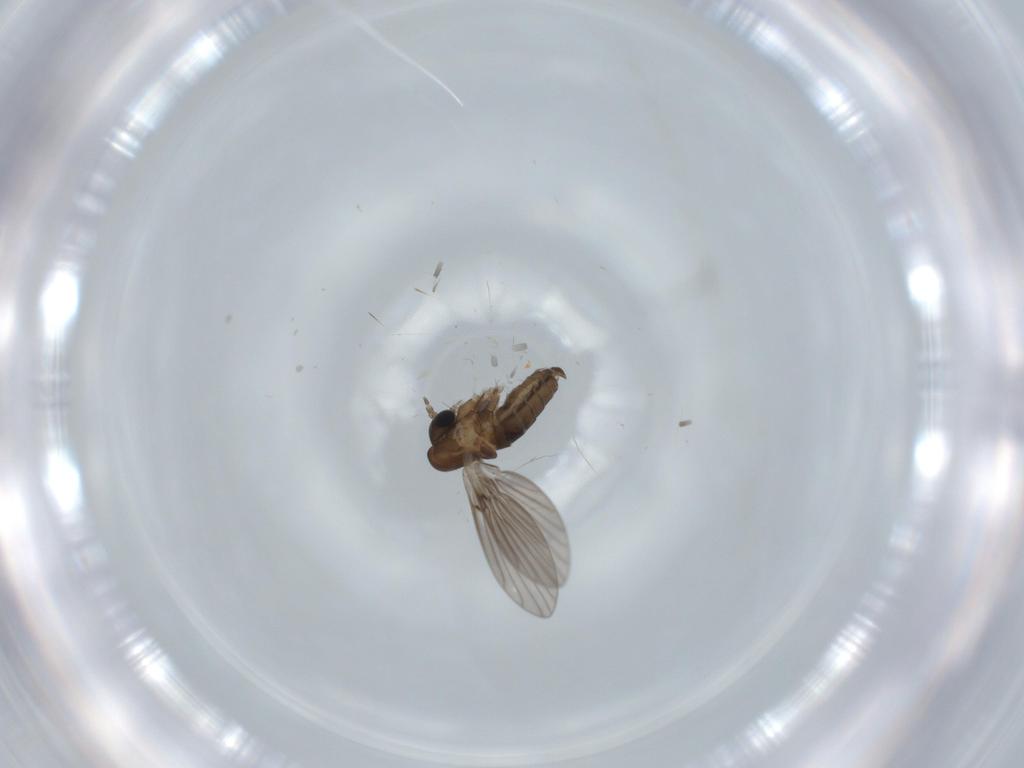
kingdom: Animalia
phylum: Arthropoda
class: Insecta
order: Diptera
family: Psychodidae
